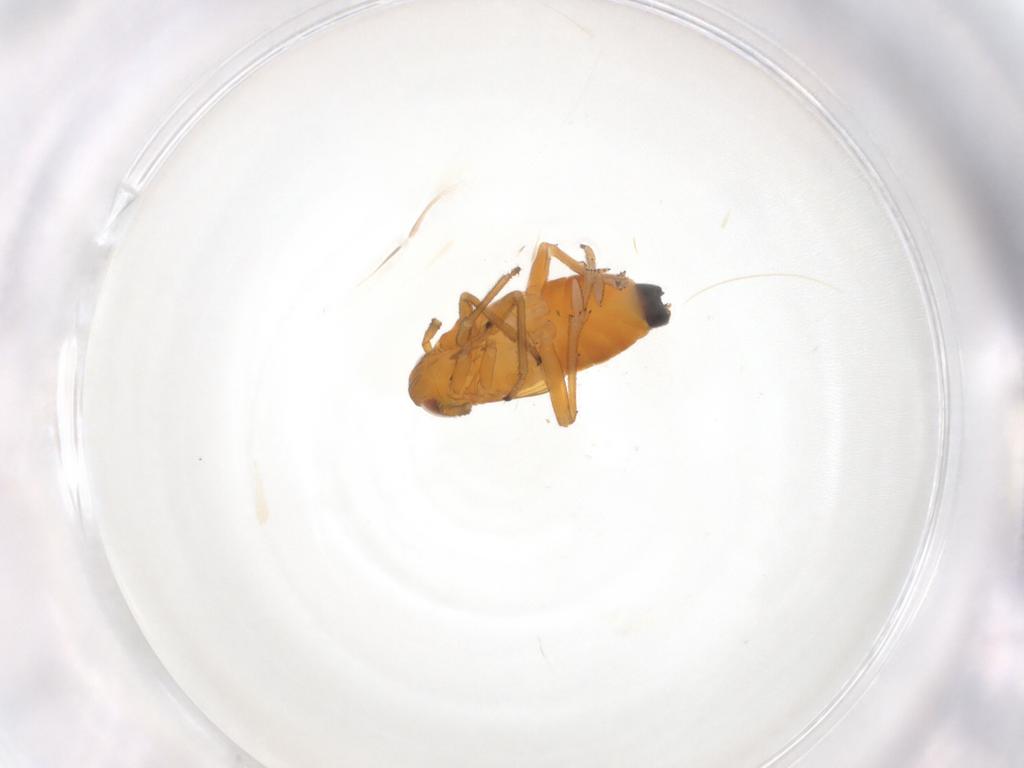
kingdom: Animalia
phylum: Arthropoda
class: Insecta
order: Hemiptera
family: Delphacidae
